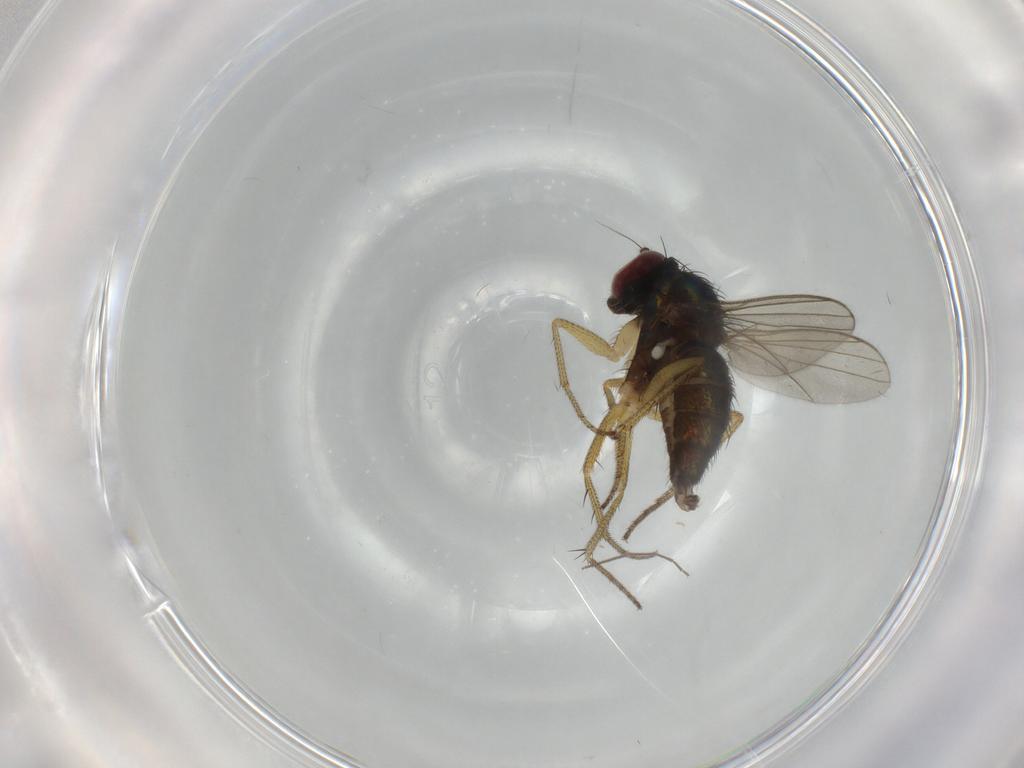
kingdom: Animalia
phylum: Arthropoda
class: Insecta
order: Diptera
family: Dolichopodidae
